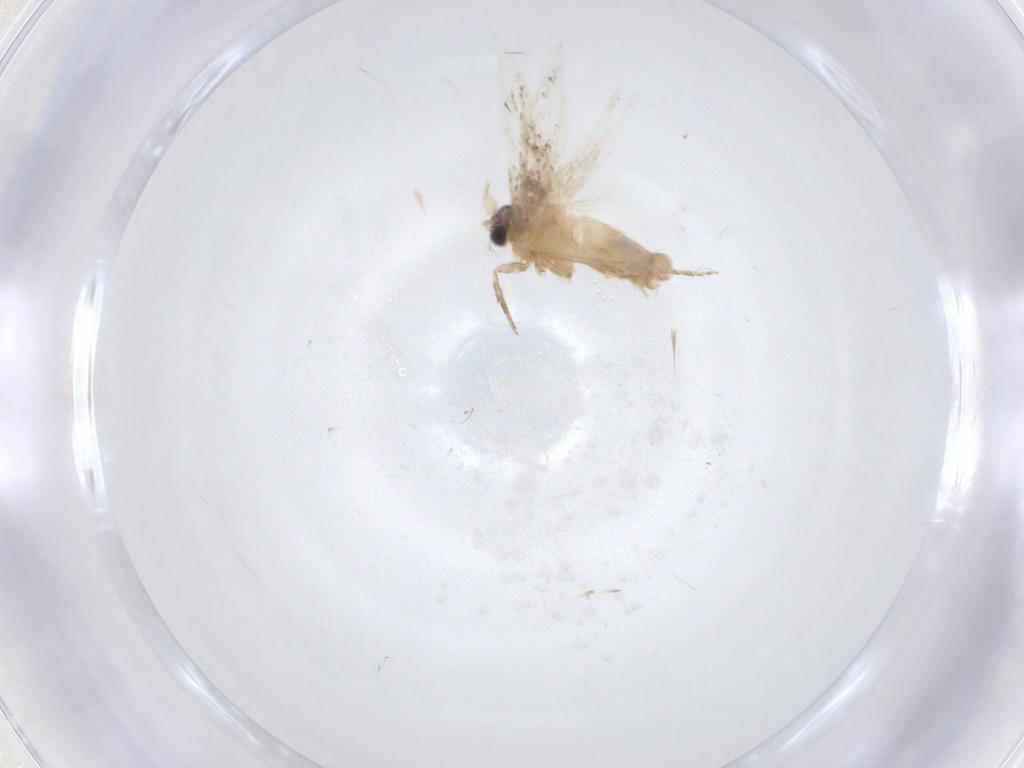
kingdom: Animalia
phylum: Arthropoda
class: Insecta
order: Lepidoptera
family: Nepticulidae
